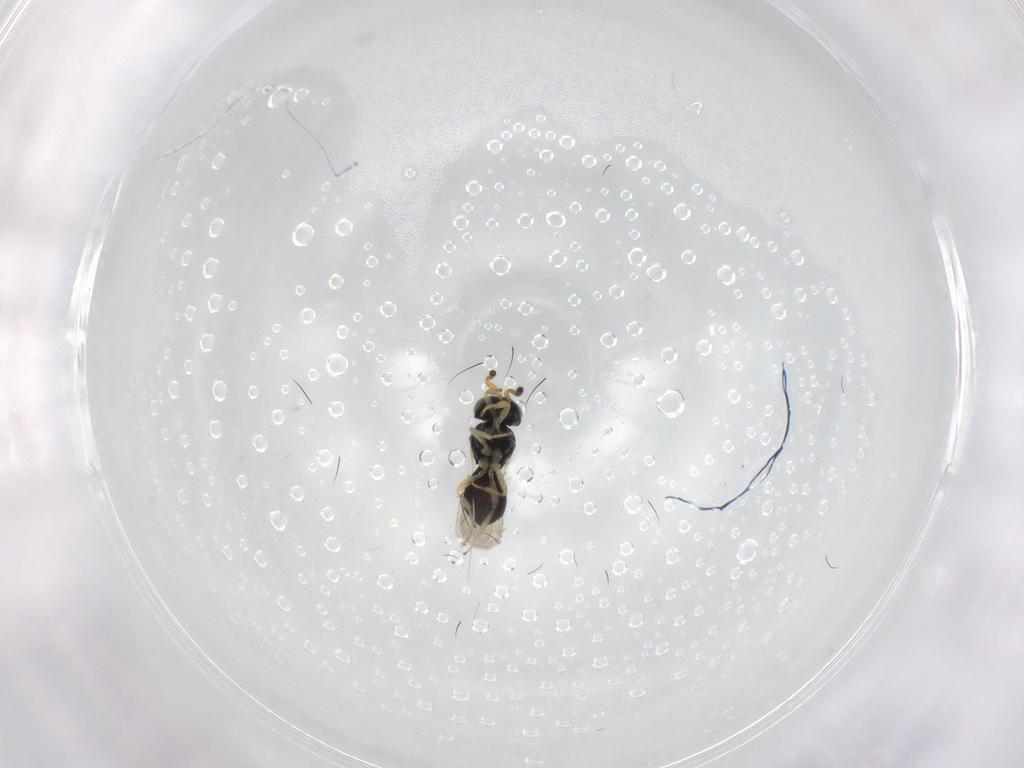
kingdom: Animalia
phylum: Arthropoda
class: Insecta
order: Hymenoptera
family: Scelionidae
